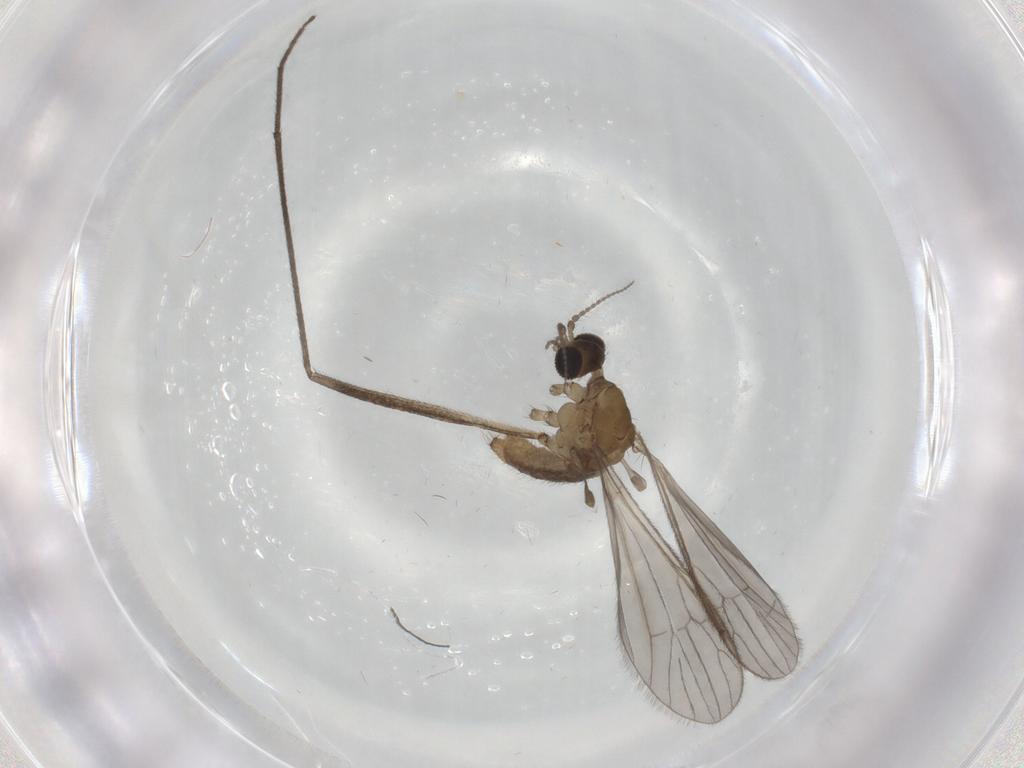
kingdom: Animalia
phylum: Arthropoda
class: Insecta
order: Diptera
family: Limoniidae
